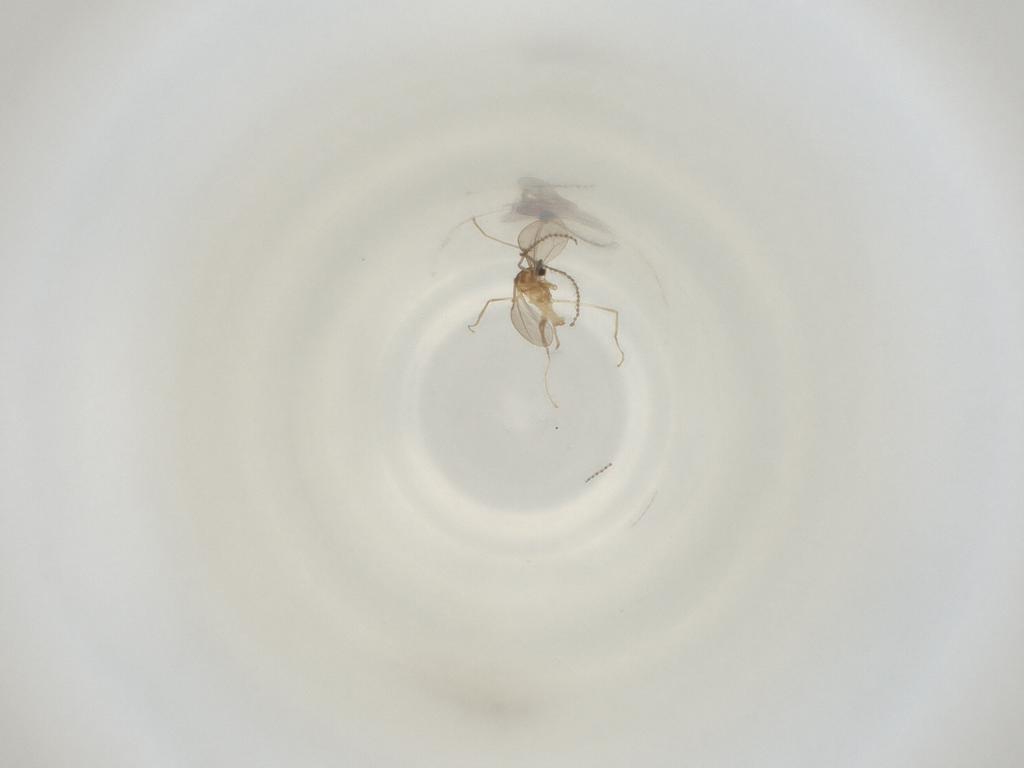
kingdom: Animalia
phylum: Arthropoda
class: Insecta
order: Diptera
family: Cecidomyiidae
